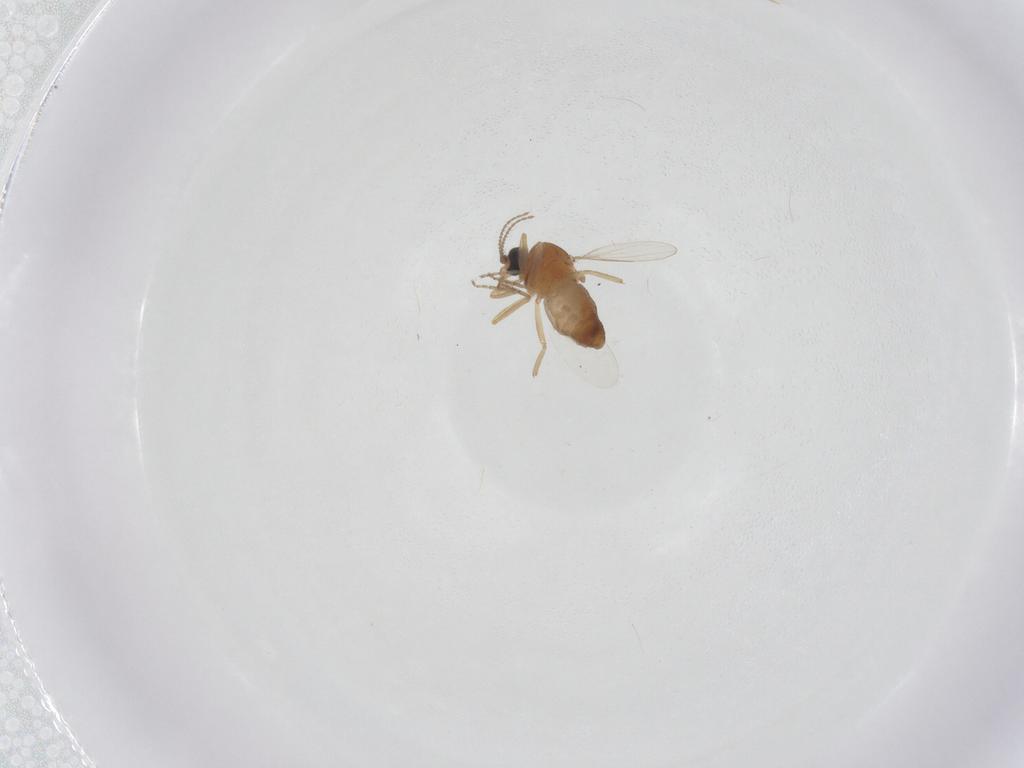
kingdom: Animalia
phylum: Arthropoda
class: Insecta
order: Diptera
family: Ceratopogonidae
